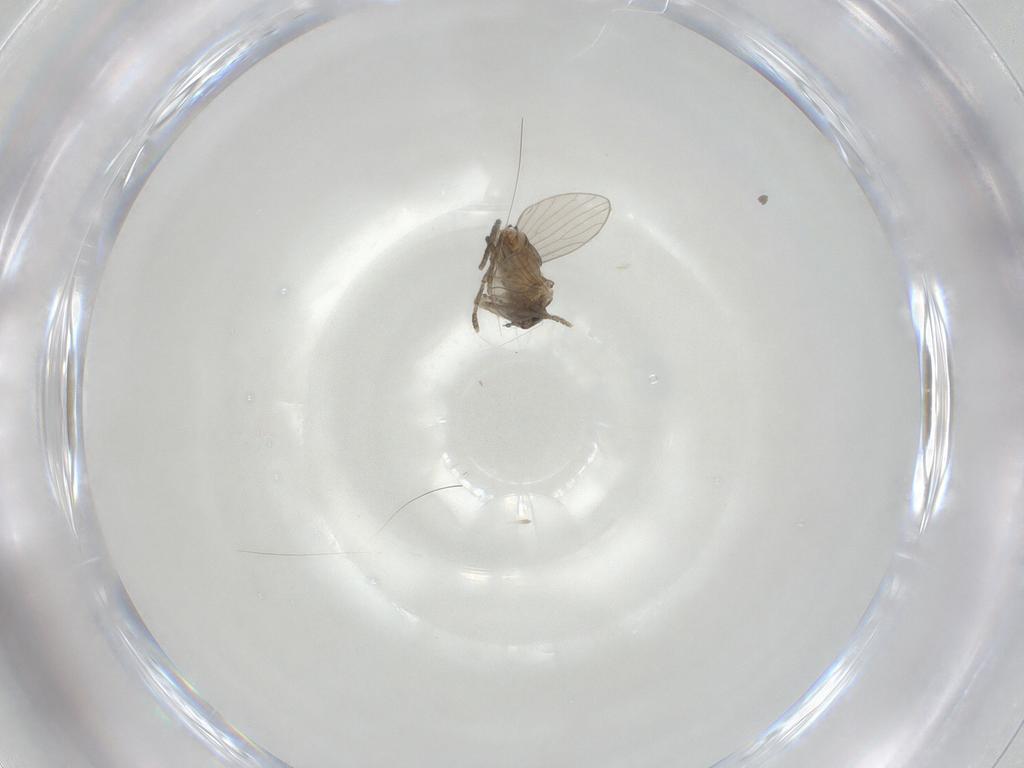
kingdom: Animalia
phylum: Arthropoda
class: Insecta
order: Diptera
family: Psychodidae
